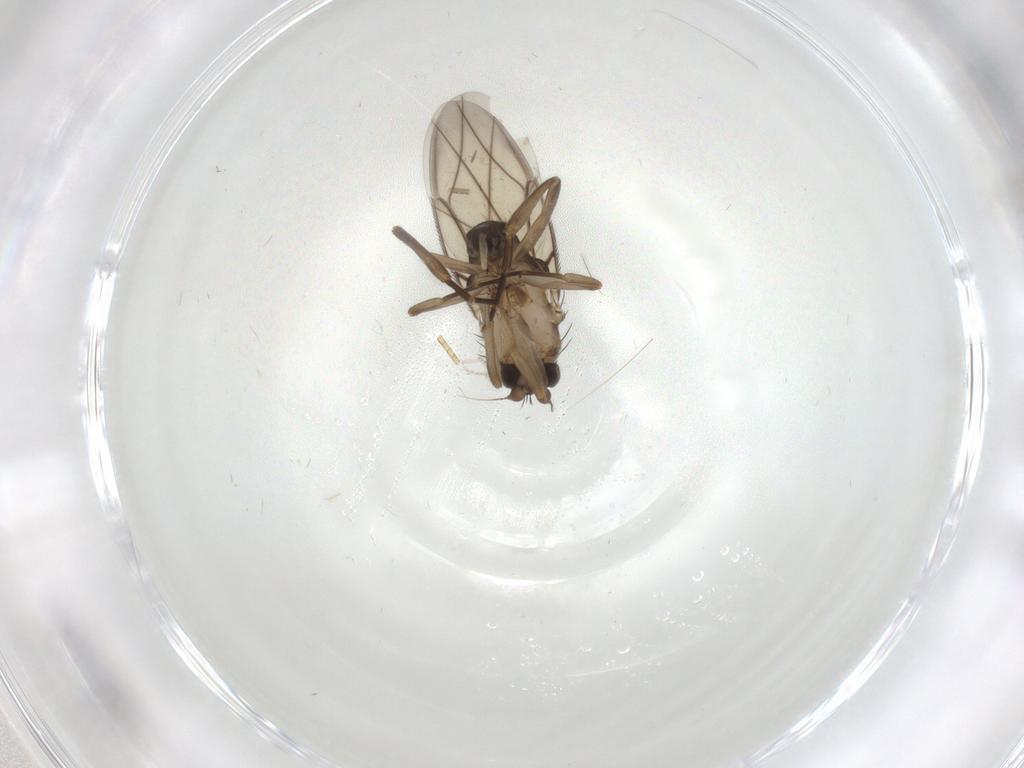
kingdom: Animalia
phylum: Arthropoda
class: Insecta
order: Diptera
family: Phoridae
